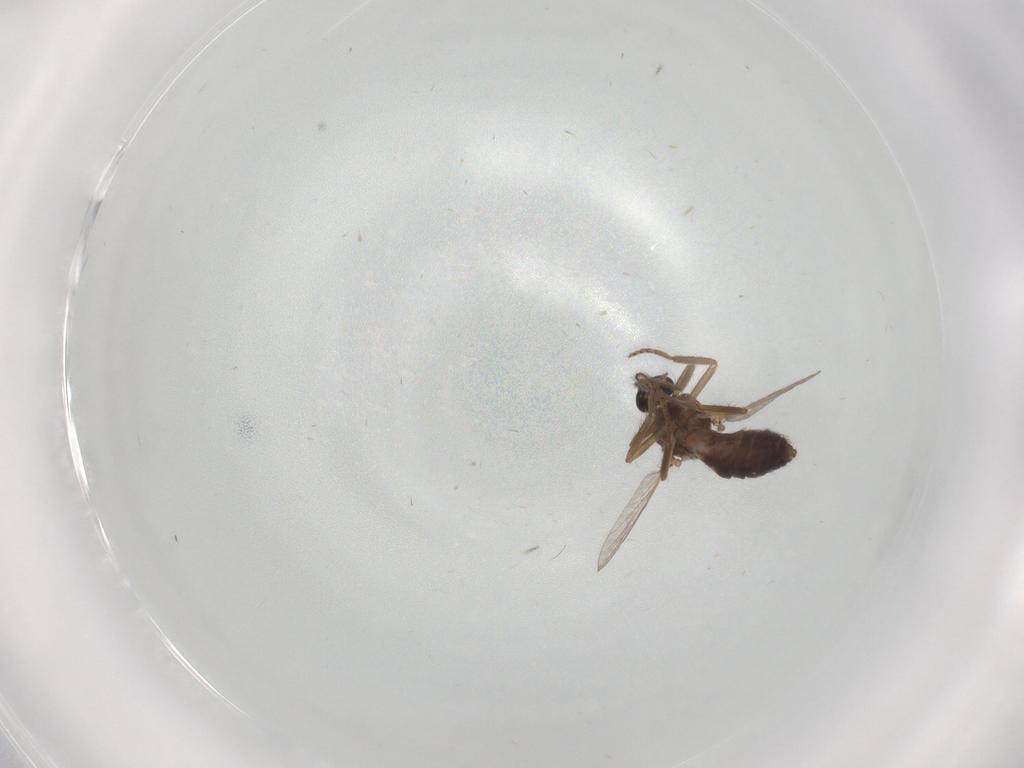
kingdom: Animalia
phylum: Arthropoda
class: Insecta
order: Diptera
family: Ceratopogonidae
